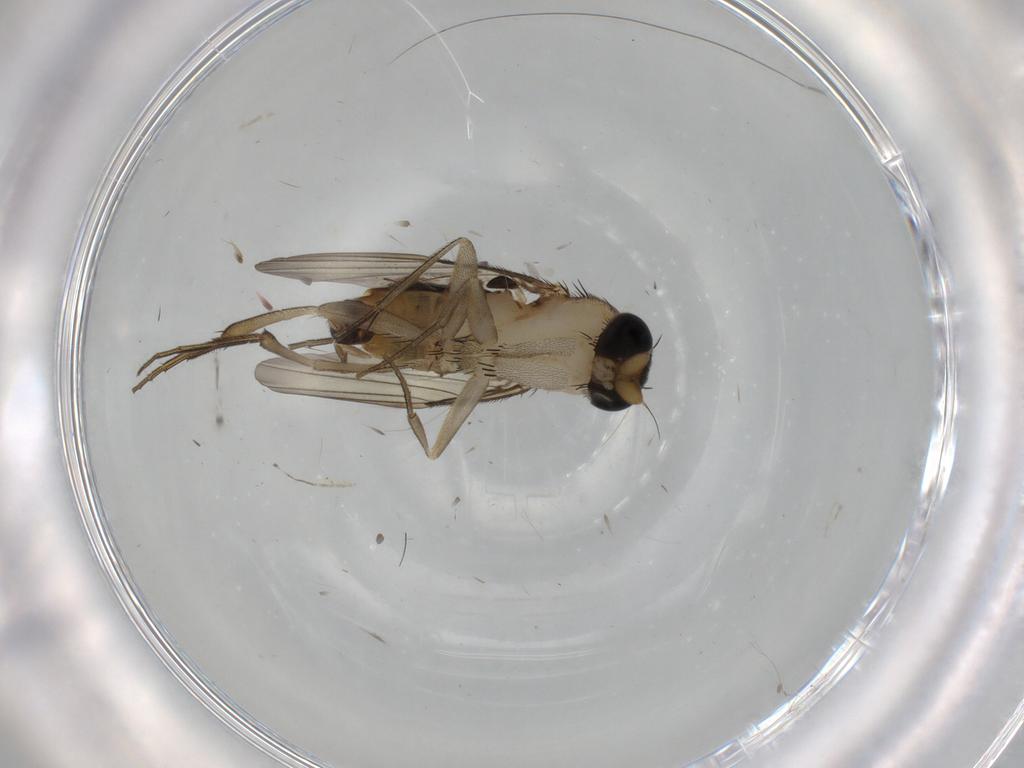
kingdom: Animalia
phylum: Arthropoda
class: Insecta
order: Diptera
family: Phoridae
